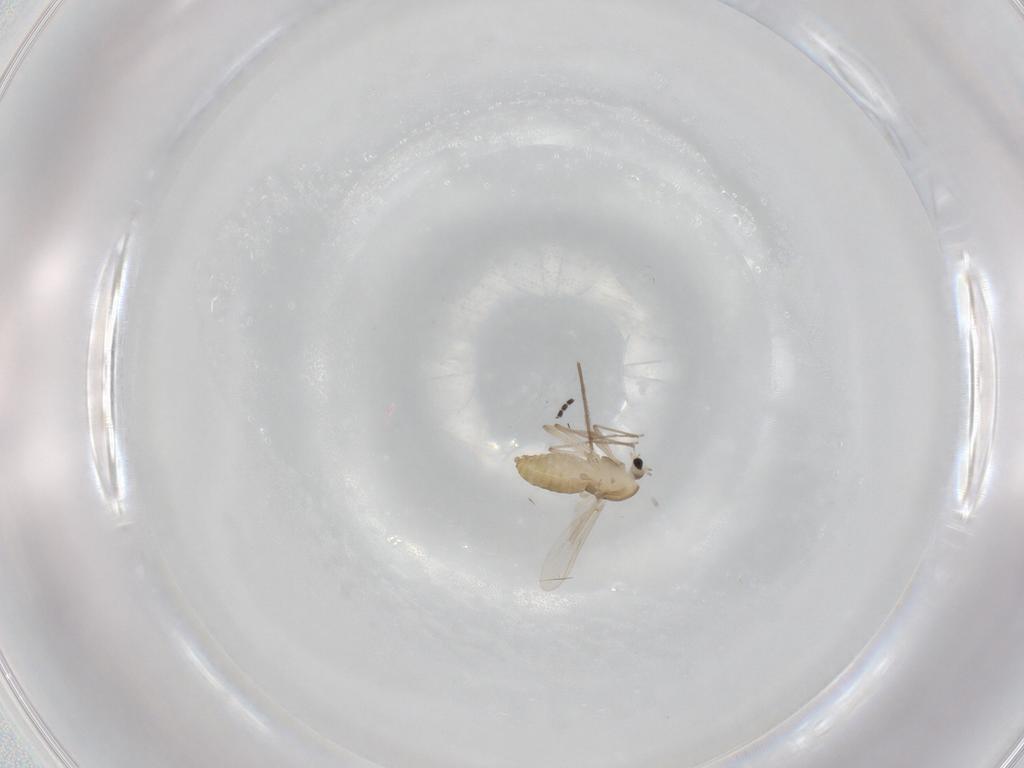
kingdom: Animalia
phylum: Arthropoda
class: Insecta
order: Diptera
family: Chironomidae
